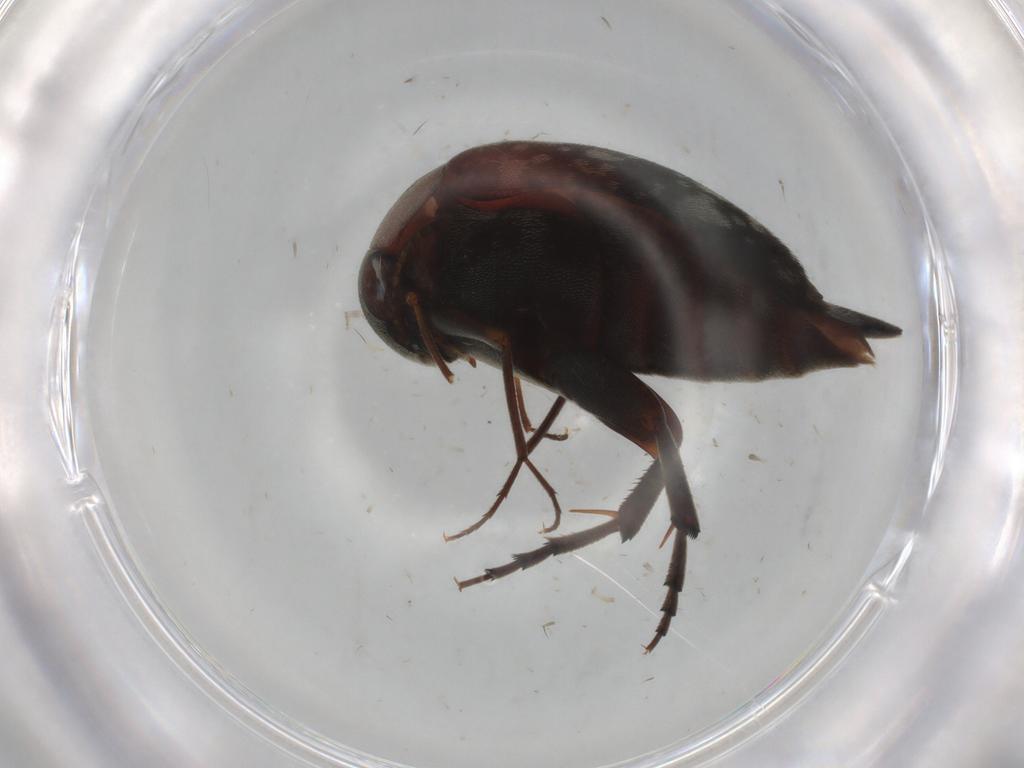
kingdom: Animalia
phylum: Arthropoda
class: Insecta
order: Coleoptera
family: Mordellidae
